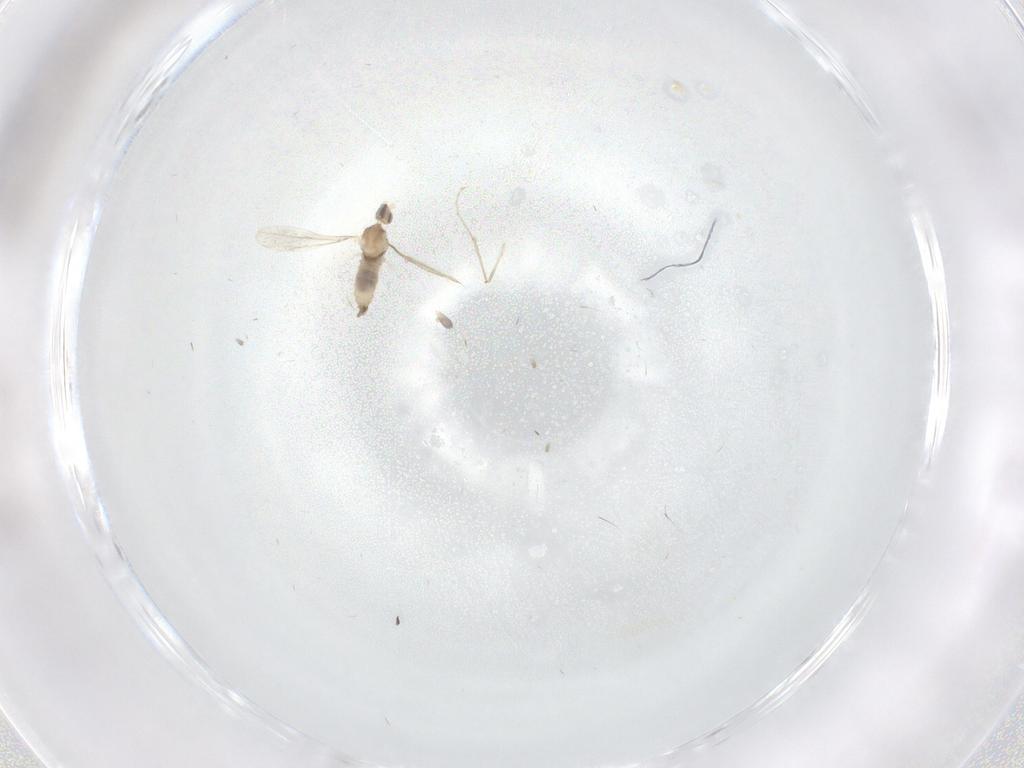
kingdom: Animalia
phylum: Arthropoda
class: Insecta
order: Diptera
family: Cecidomyiidae
